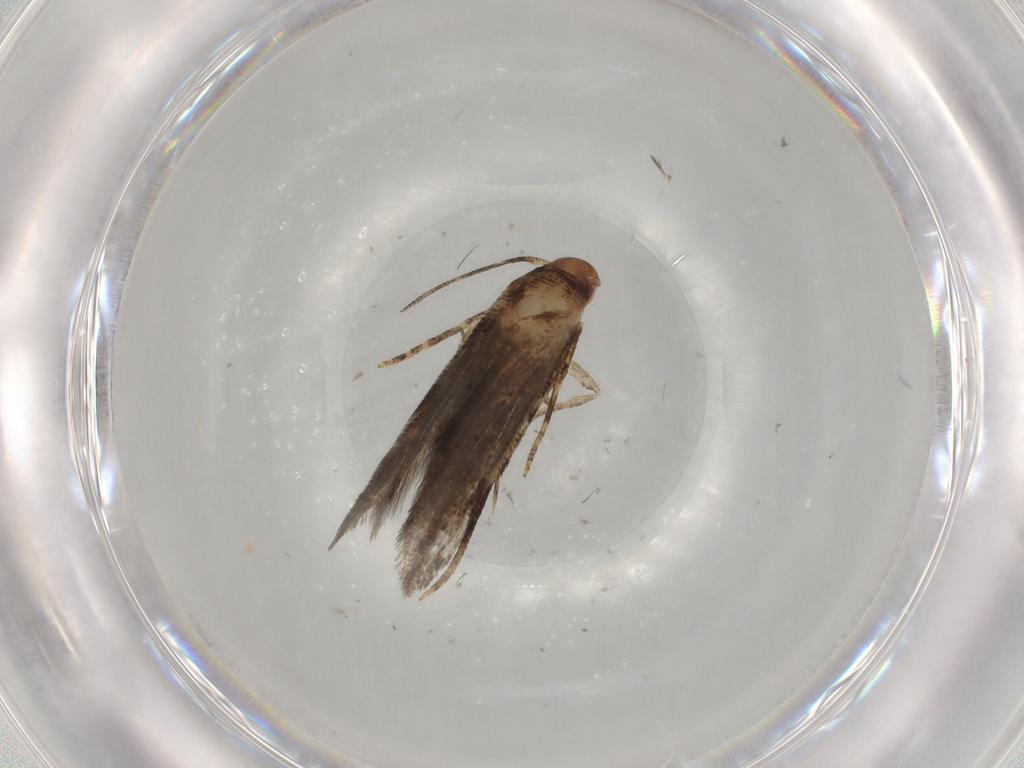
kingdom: Animalia
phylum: Arthropoda
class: Insecta
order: Lepidoptera
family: Momphidae
